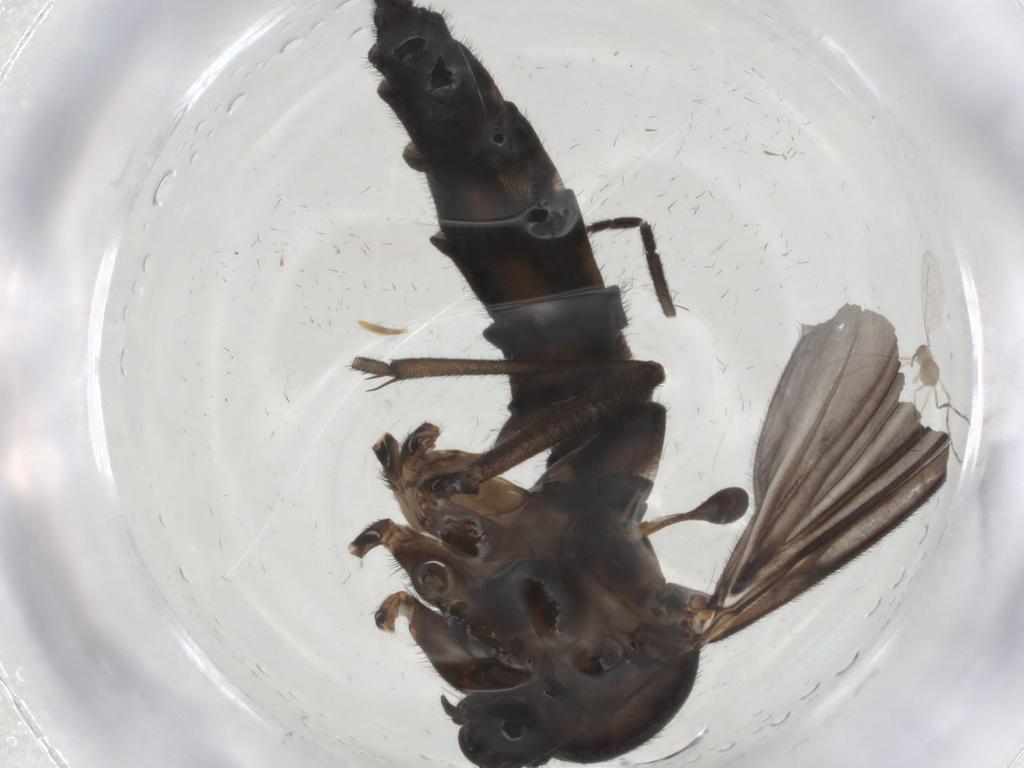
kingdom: Animalia
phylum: Arthropoda
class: Insecta
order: Diptera
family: Sciaridae
